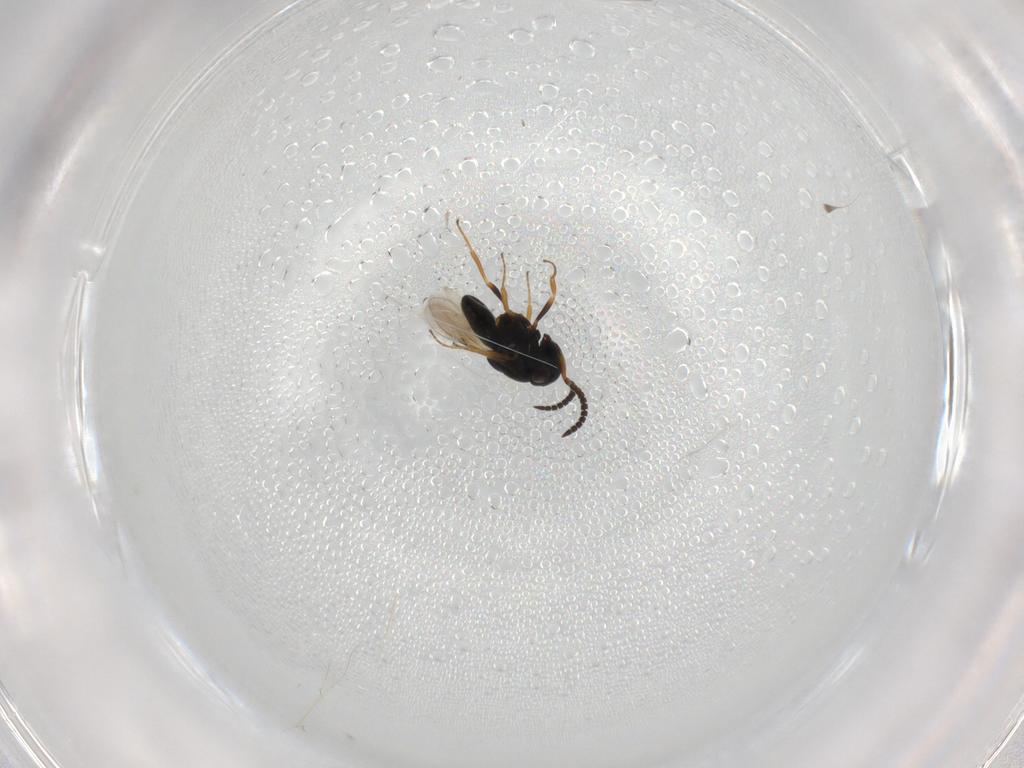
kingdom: Animalia
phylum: Arthropoda
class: Insecta
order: Hymenoptera
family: Scelionidae
